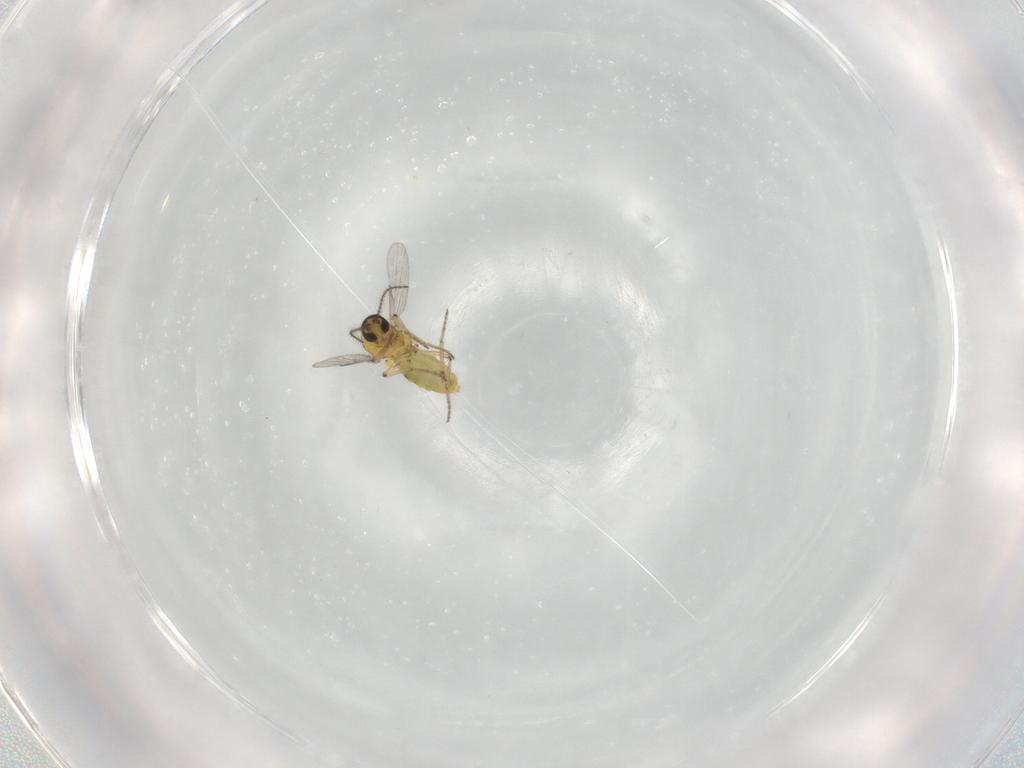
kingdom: Animalia
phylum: Arthropoda
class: Insecta
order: Diptera
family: Ceratopogonidae
